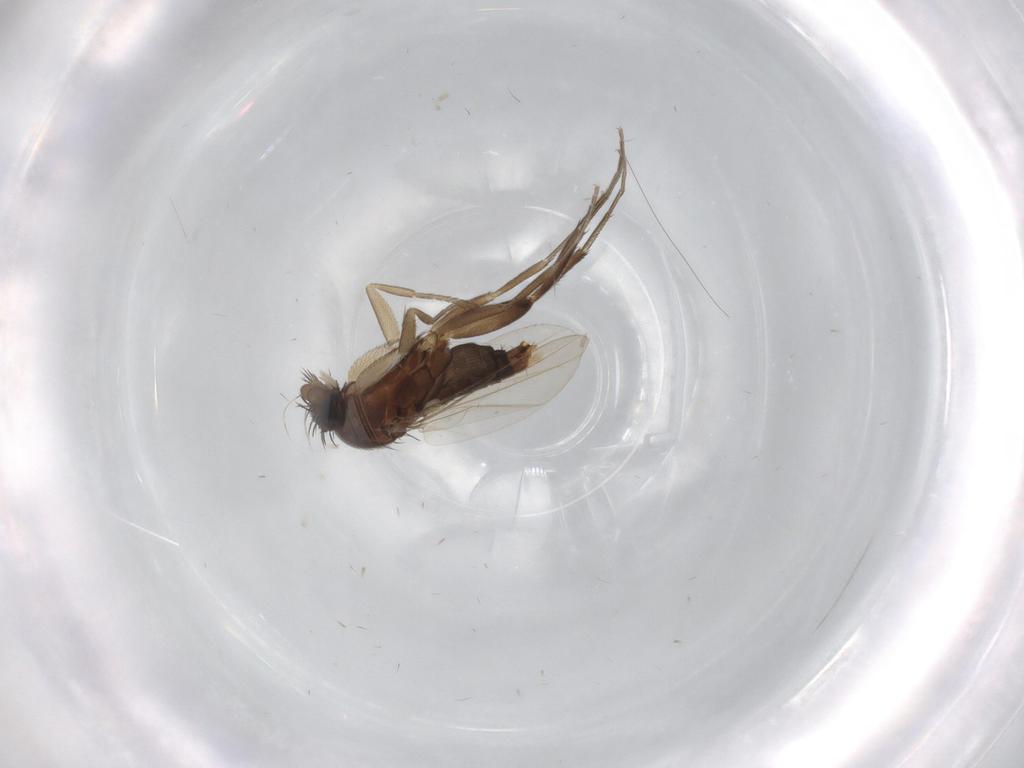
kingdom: Animalia
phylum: Arthropoda
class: Insecta
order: Diptera
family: Phoridae
